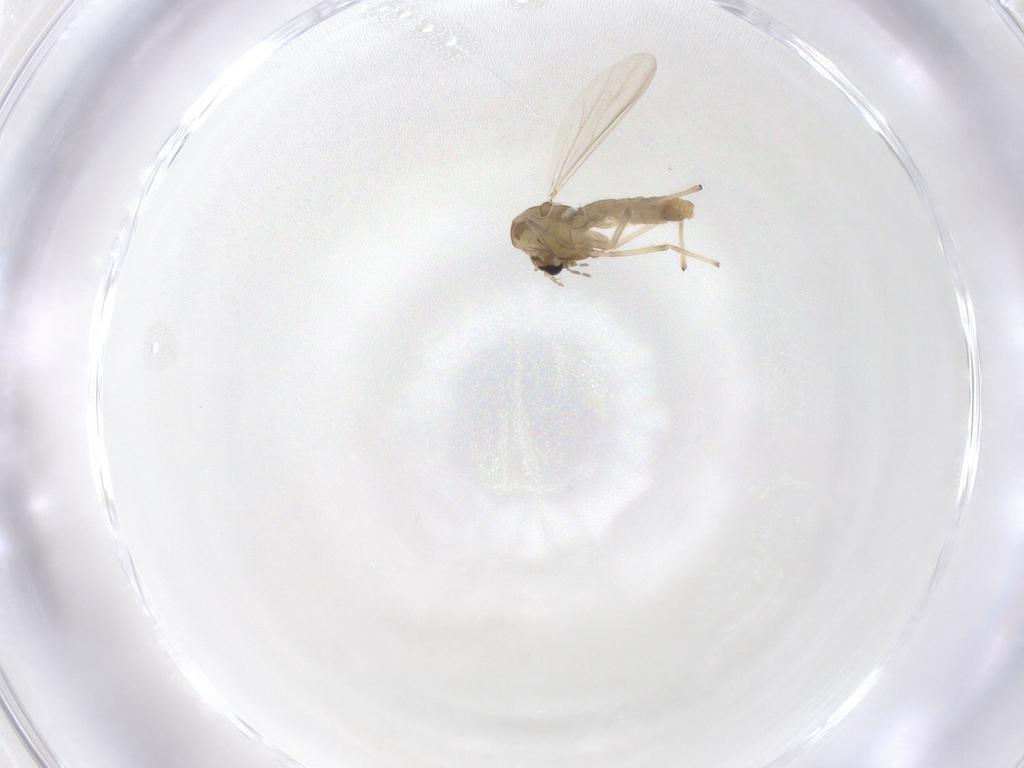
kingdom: Animalia
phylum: Arthropoda
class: Insecta
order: Diptera
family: Chironomidae
